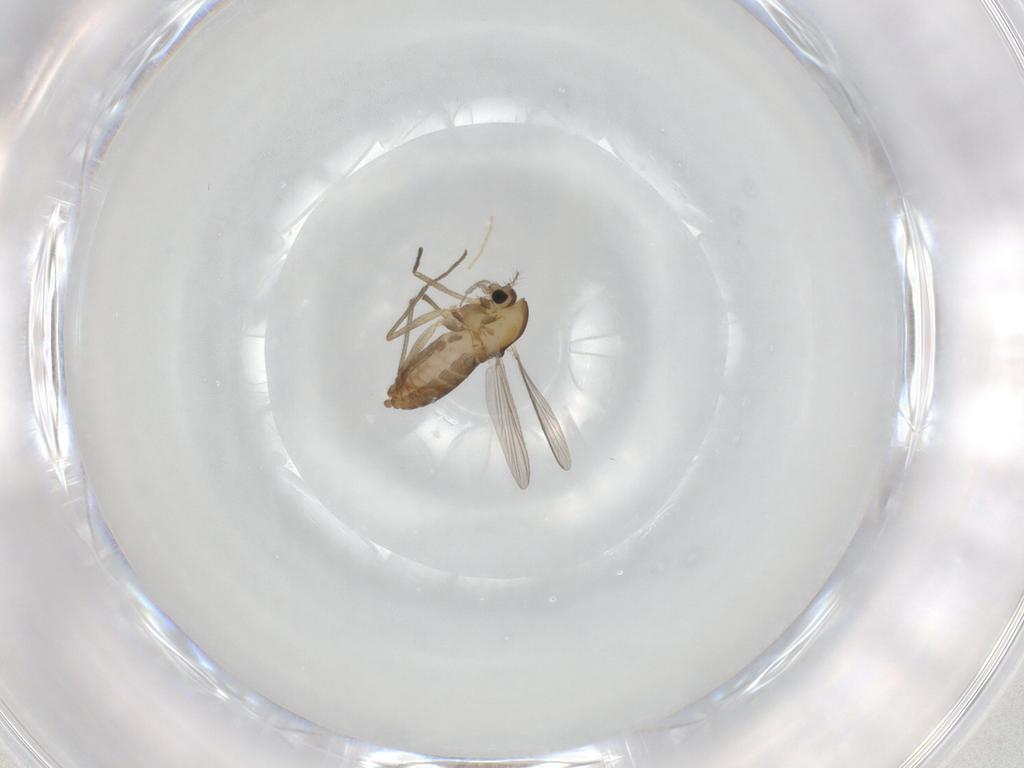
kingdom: Animalia
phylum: Arthropoda
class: Insecta
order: Diptera
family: Chironomidae
